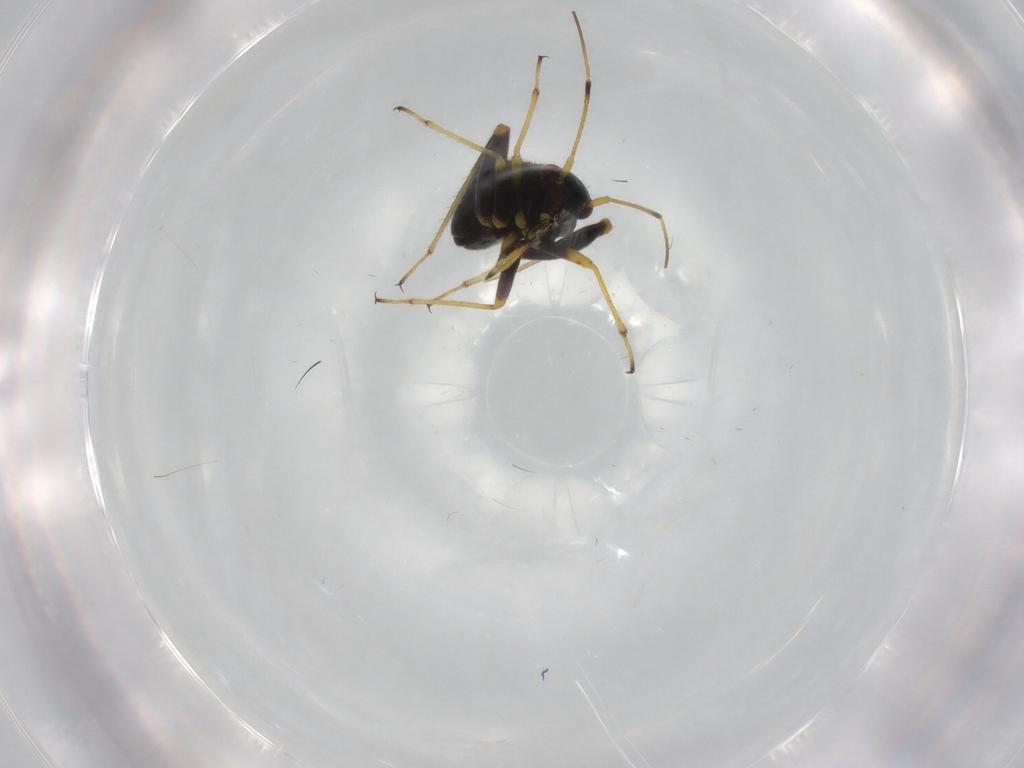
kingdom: Animalia
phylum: Arthropoda
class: Insecta
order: Hemiptera
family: Miridae
